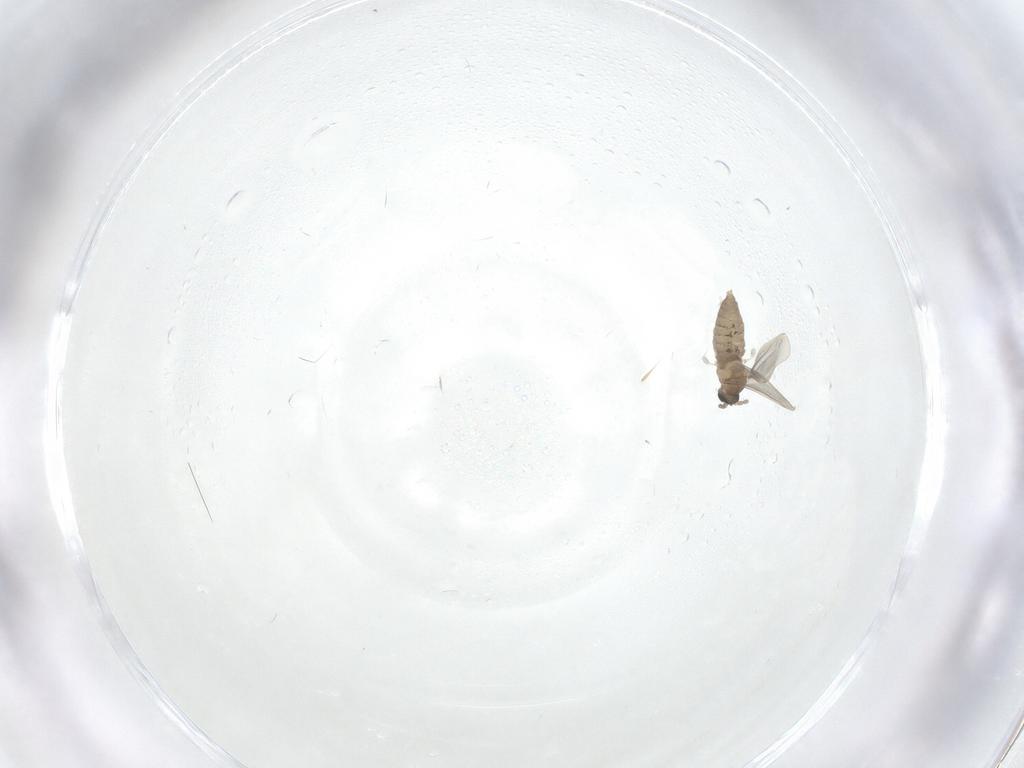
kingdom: Animalia
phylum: Arthropoda
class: Insecta
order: Diptera
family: Cecidomyiidae
